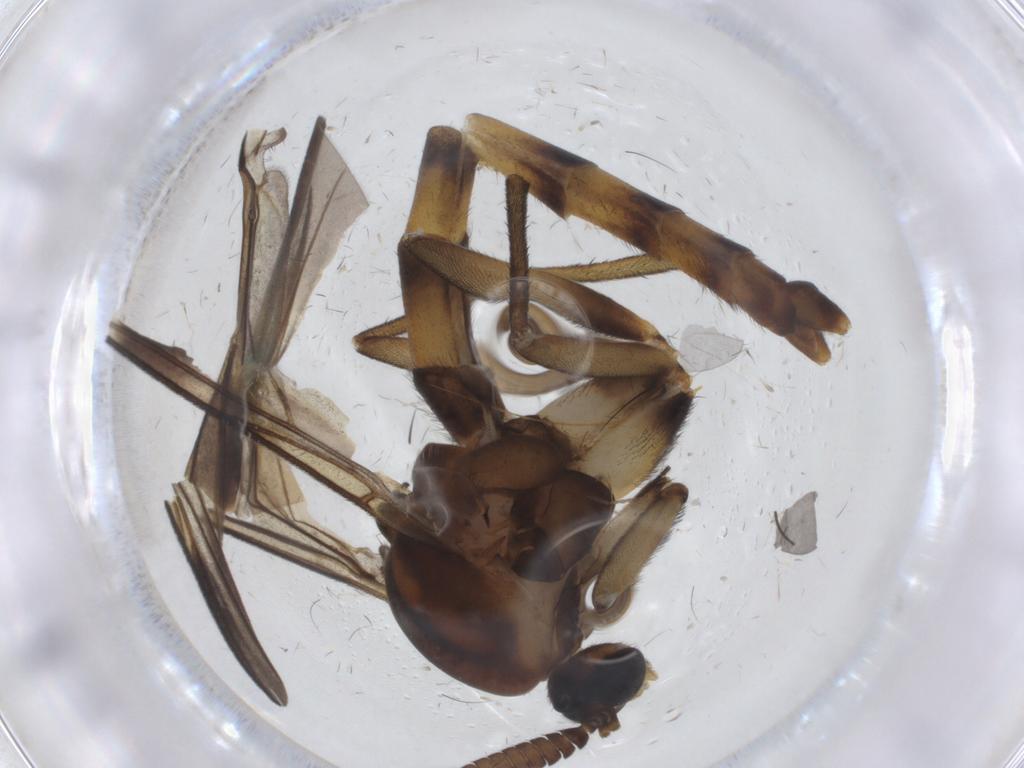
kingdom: Animalia
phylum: Arthropoda
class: Insecta
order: Diptera
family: Keroplatidae
